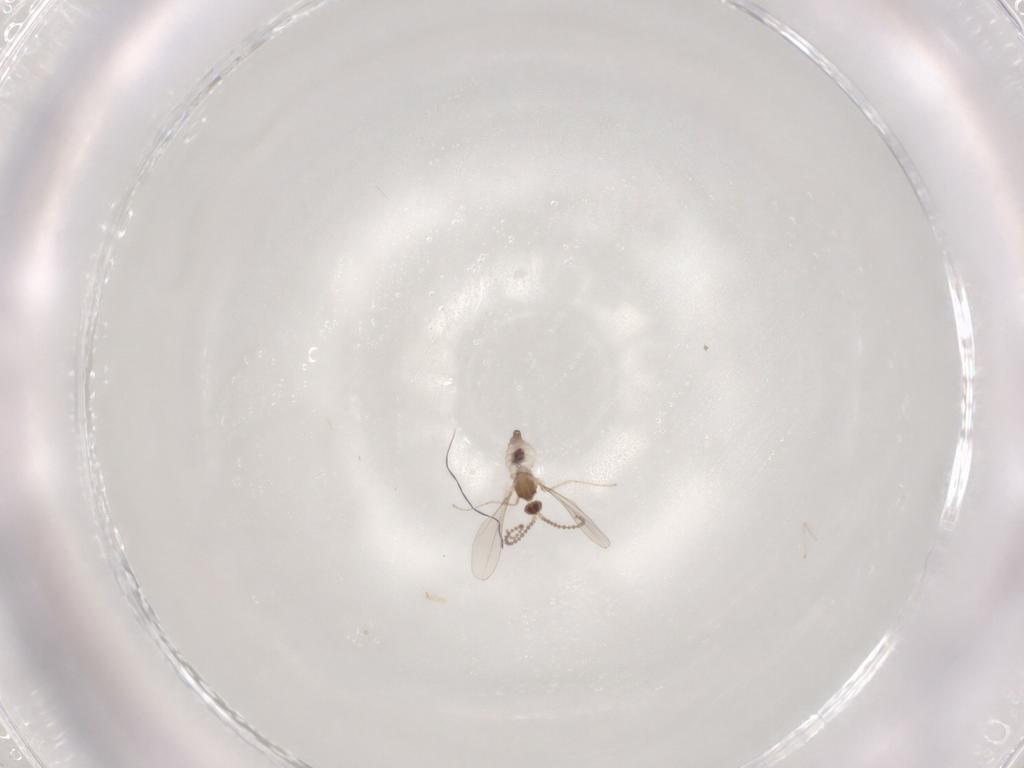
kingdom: Animalia
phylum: Arthropoda
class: Insecta
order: Diptera
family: Cecidomyiidae
